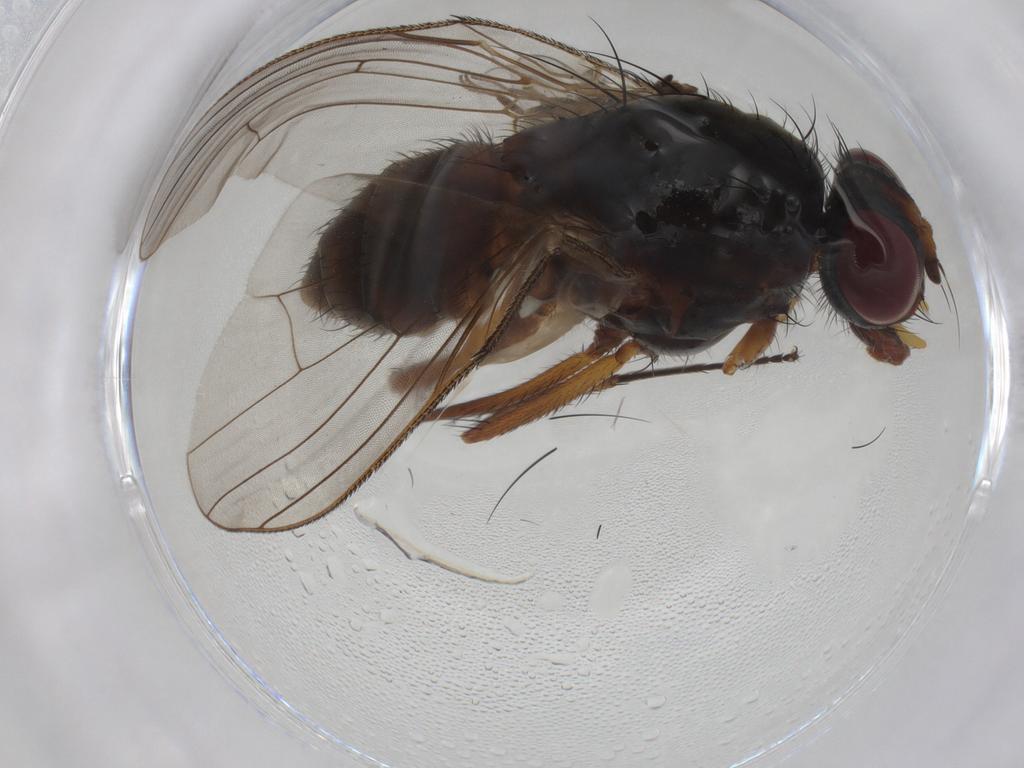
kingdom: Animalia
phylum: Arthropoda
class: Insecta
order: Diptera
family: Anthomyiidae
